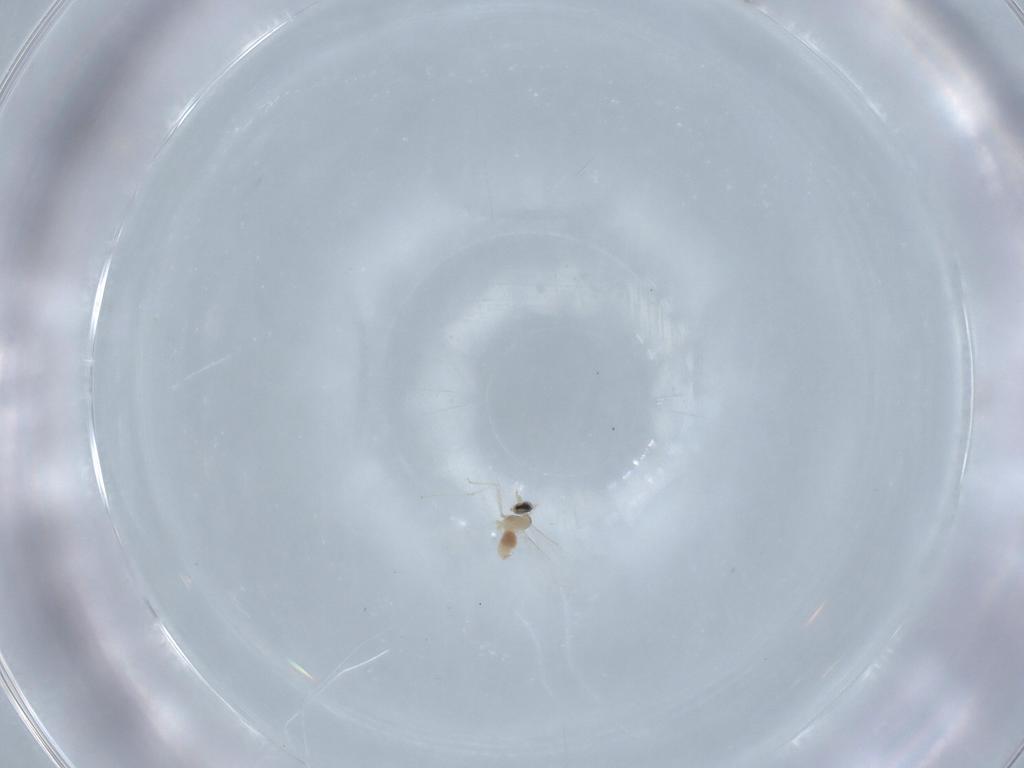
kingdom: Animalia
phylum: Arthropoda
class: Insecta
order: Diptera
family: Cecidomyiidae
